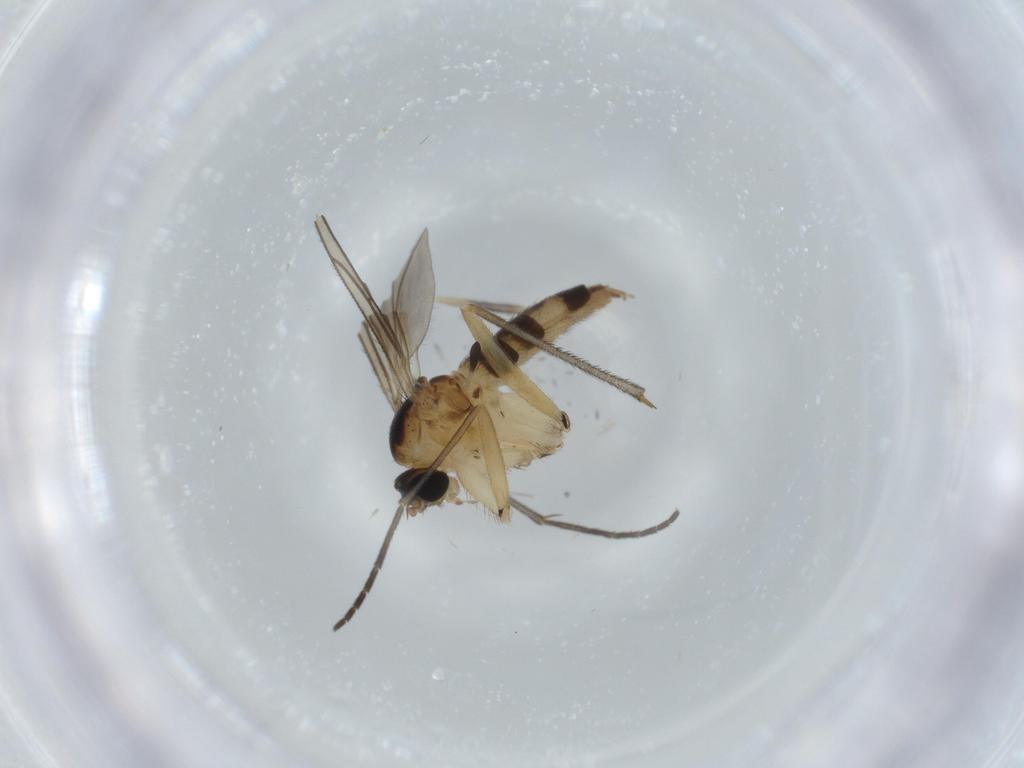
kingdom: Animalia
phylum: Arthropoda
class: Insecta
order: Diptera
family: Sciaridae
